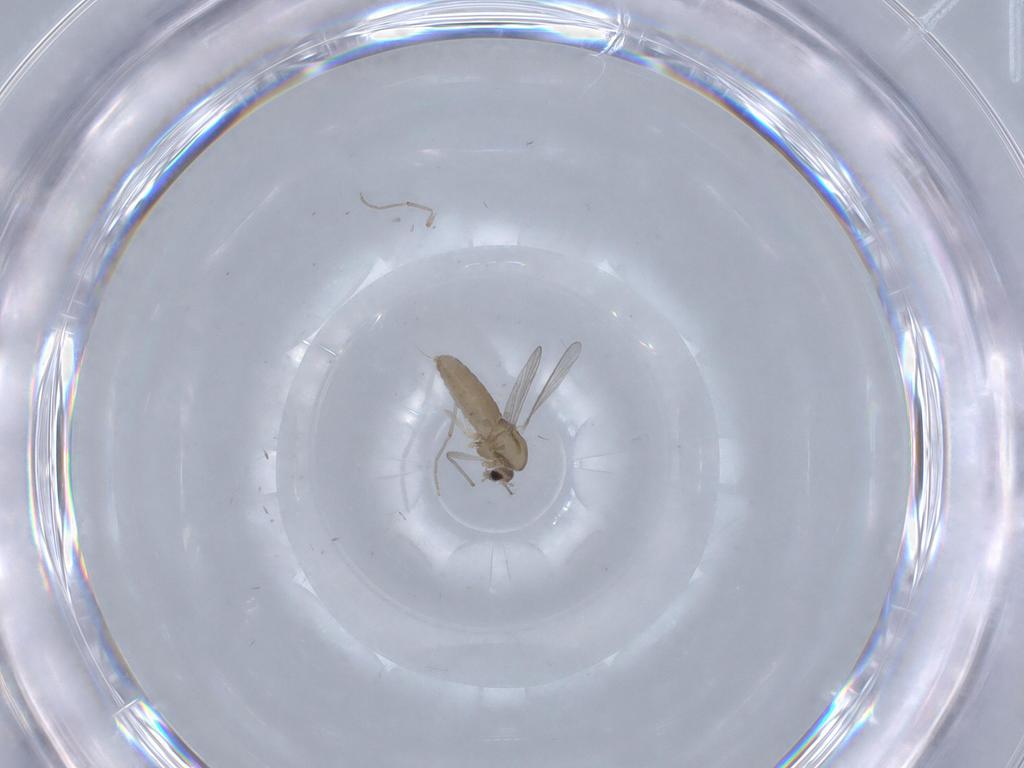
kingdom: Animalia
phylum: Arthropoda
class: Insecta
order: Diptera
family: Chironomidae
